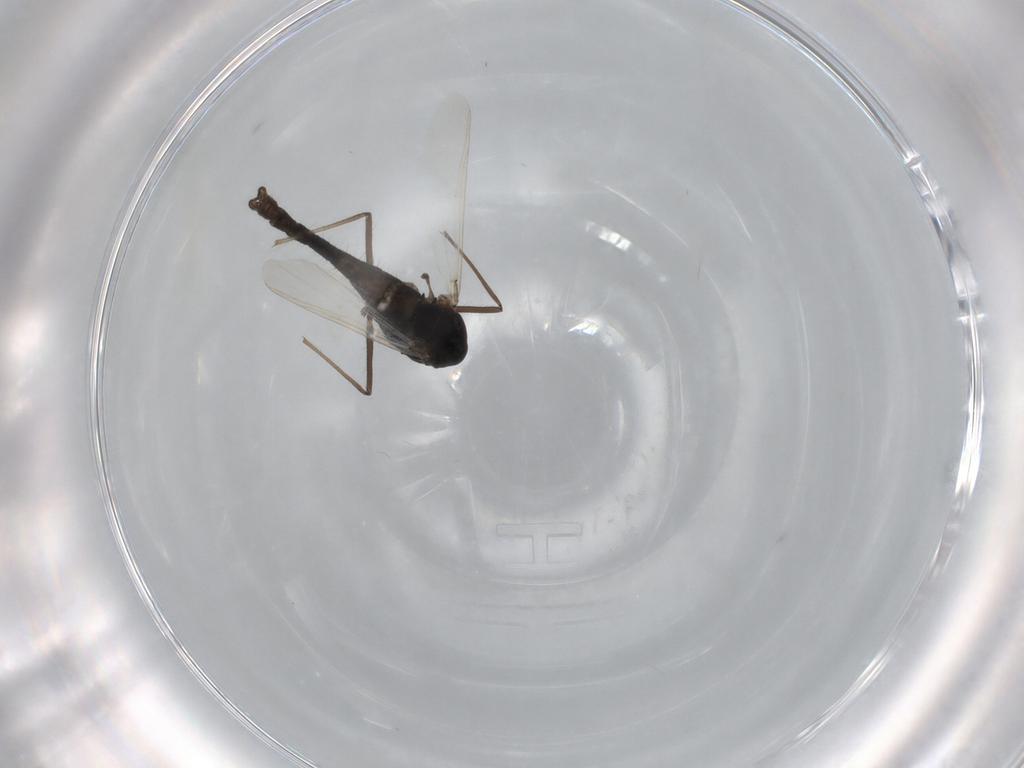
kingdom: Animalia
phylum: Arthropoda
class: Insecta
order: Diptera
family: Chironomidae
